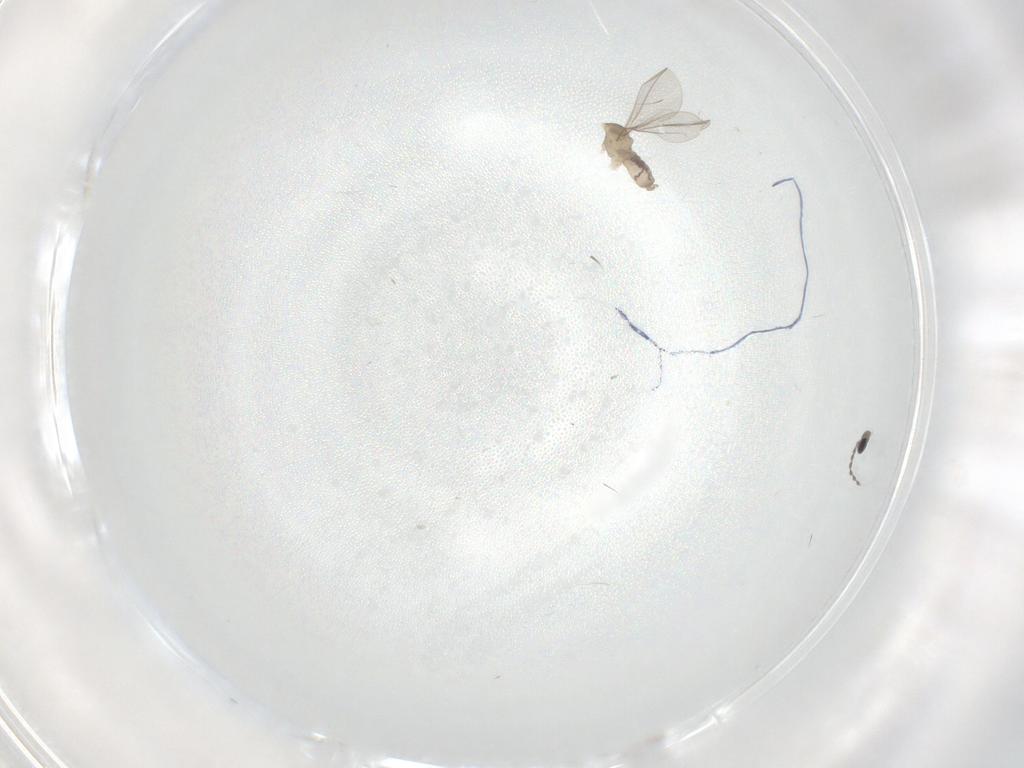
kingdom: Animalia
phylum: Arthropoda
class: Insecta
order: Diptera
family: Cecidomyiidae
